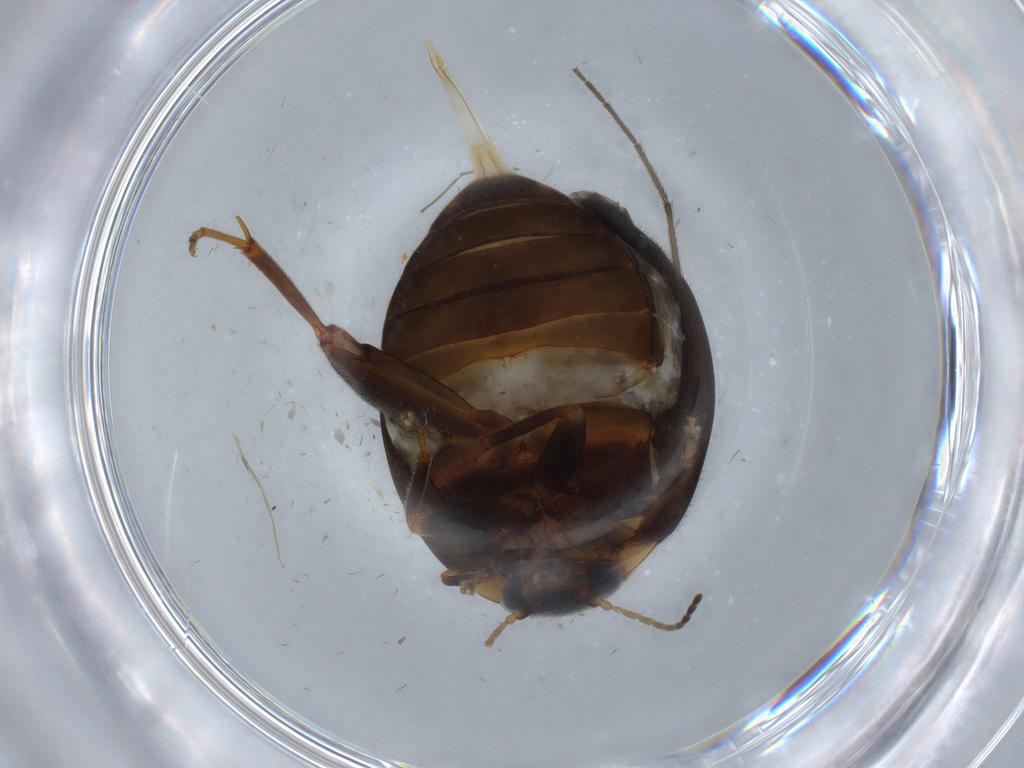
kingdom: Animalia
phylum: Arthropoda
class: Insecta
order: Coleoptera
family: Scirtidae
